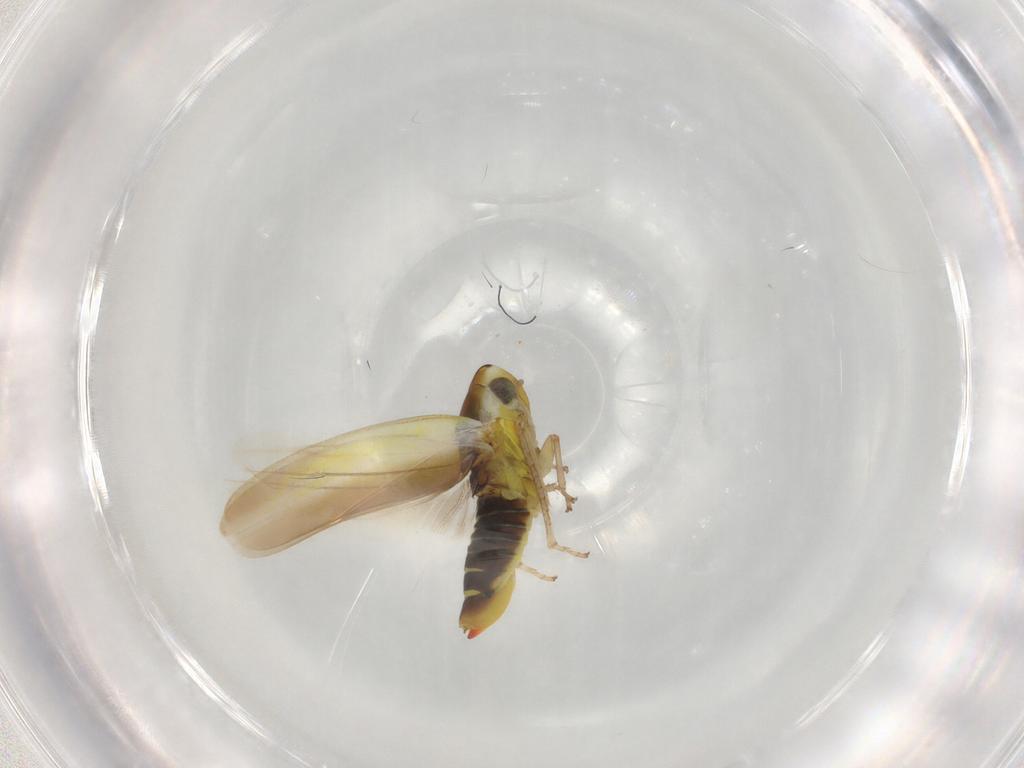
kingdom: Animalia
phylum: Arthropoda
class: Insecta
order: Hemiptera
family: Cicadellidae
